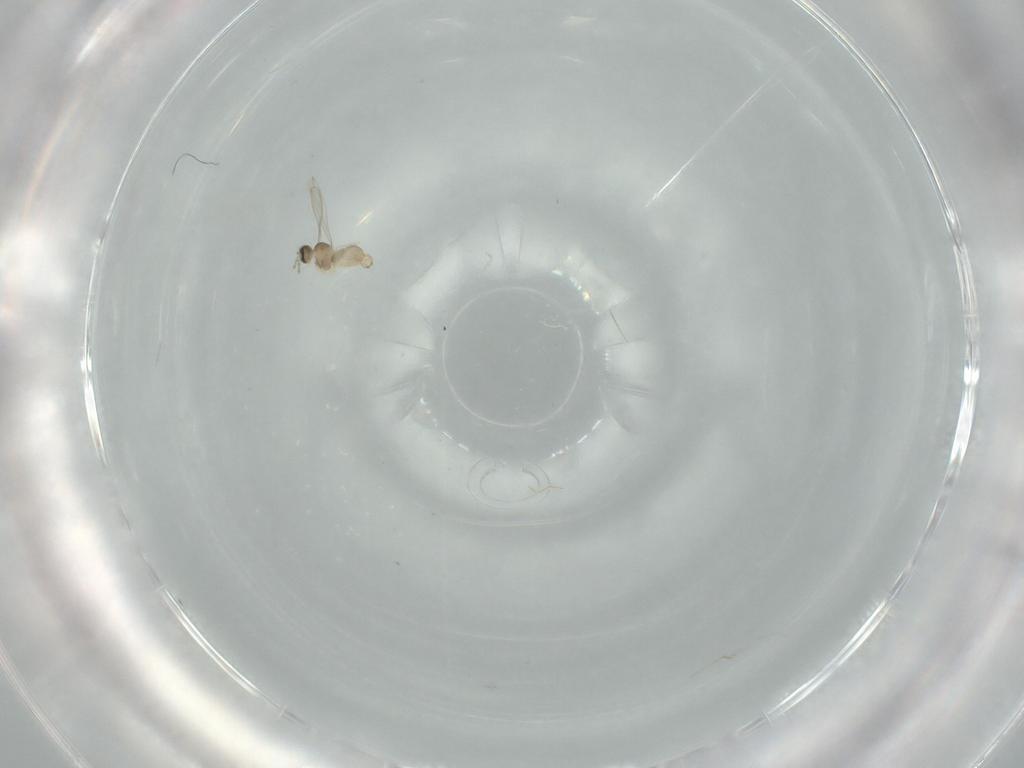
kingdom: Animalia
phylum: Arthropoda
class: Insecta
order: Diptera
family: Cecidomyiidae
